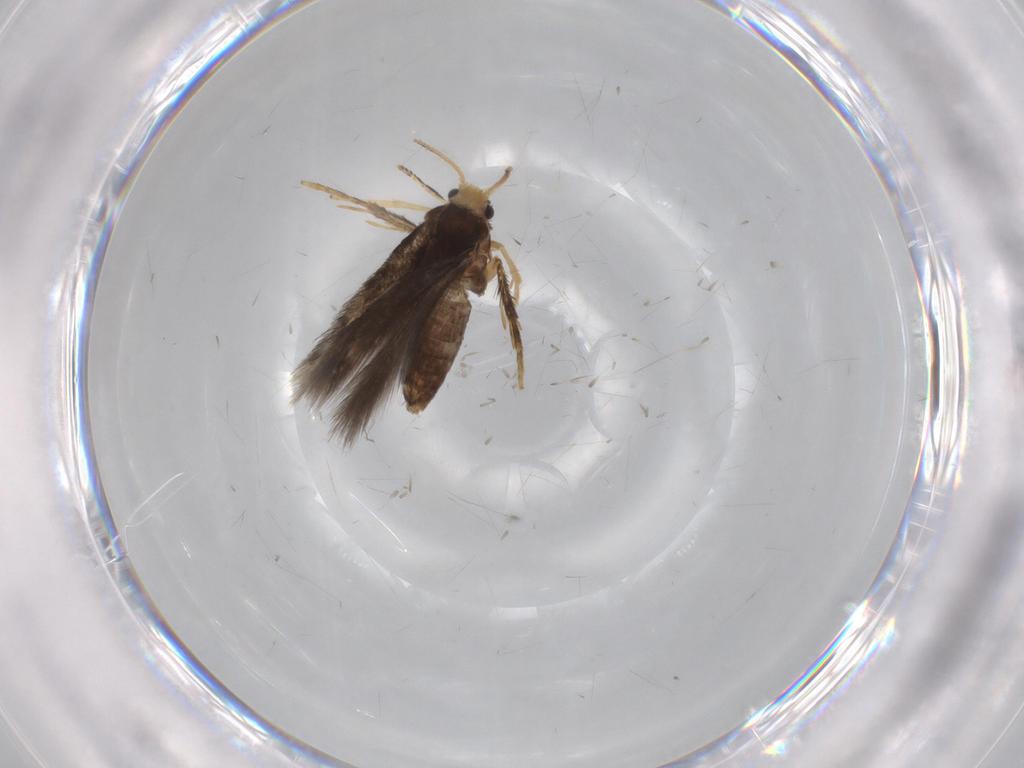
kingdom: Animalia
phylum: Arthropoda
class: Insecta
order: Lepidoptera
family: Nepticulidae
